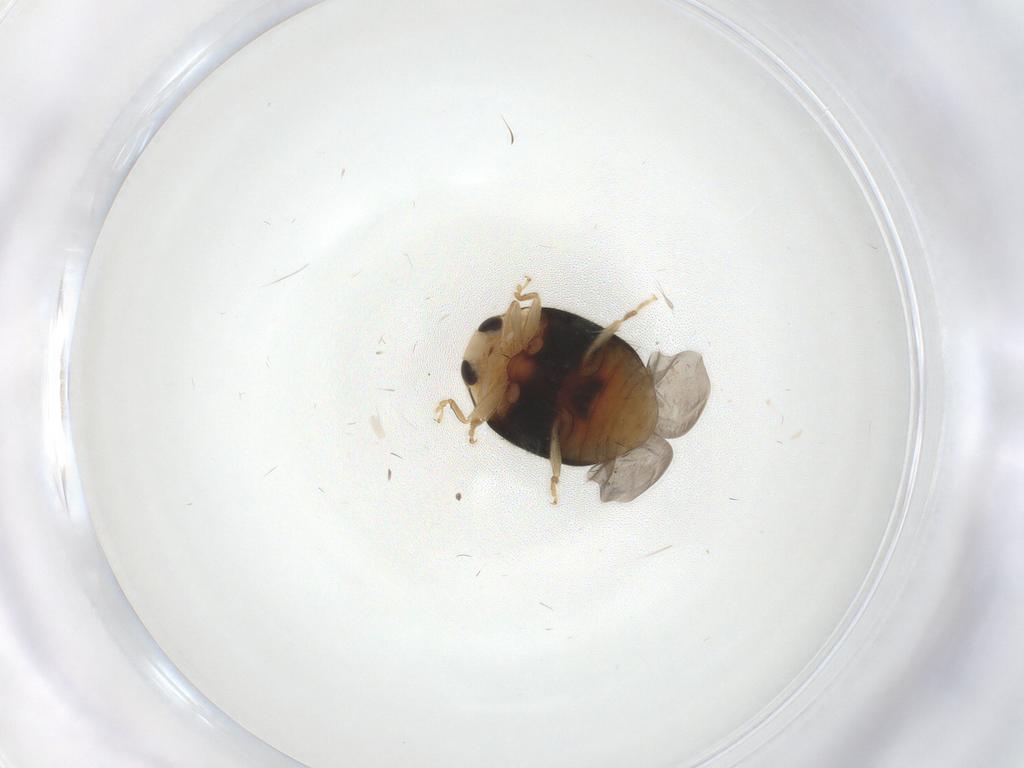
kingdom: Animalia
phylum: Arthropoda
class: Insecta
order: Coleoptera
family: Coccinellidae
